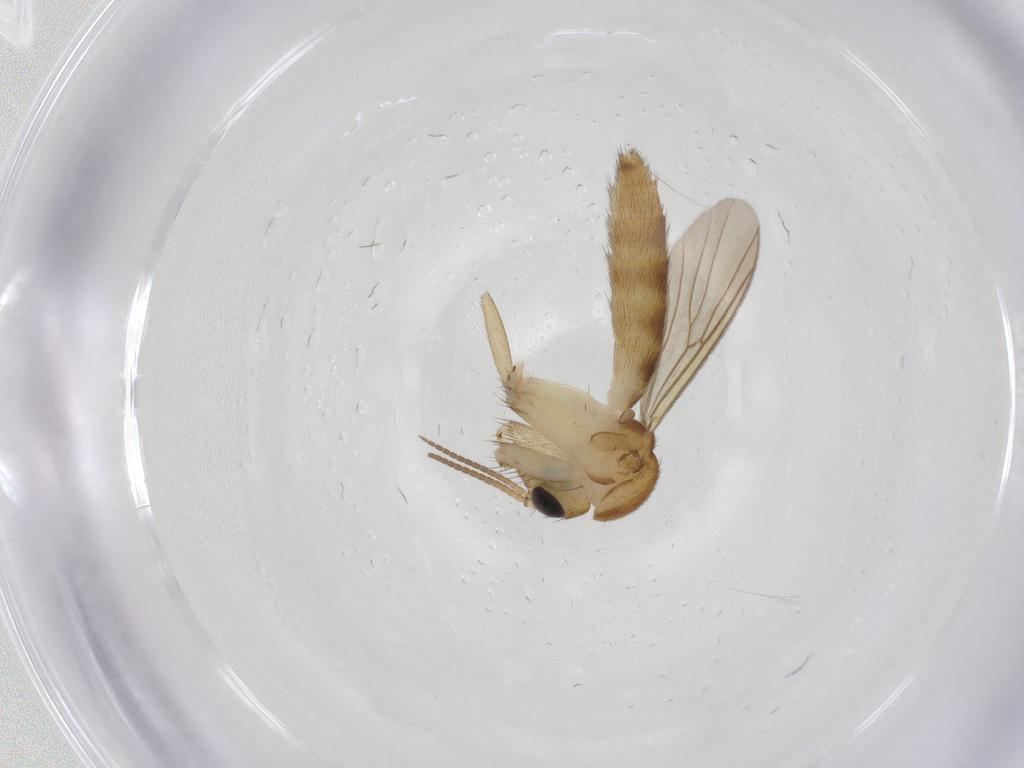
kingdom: Animalia
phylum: Arthropoda
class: Insecta
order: Diptera
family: Mycetophilidae
